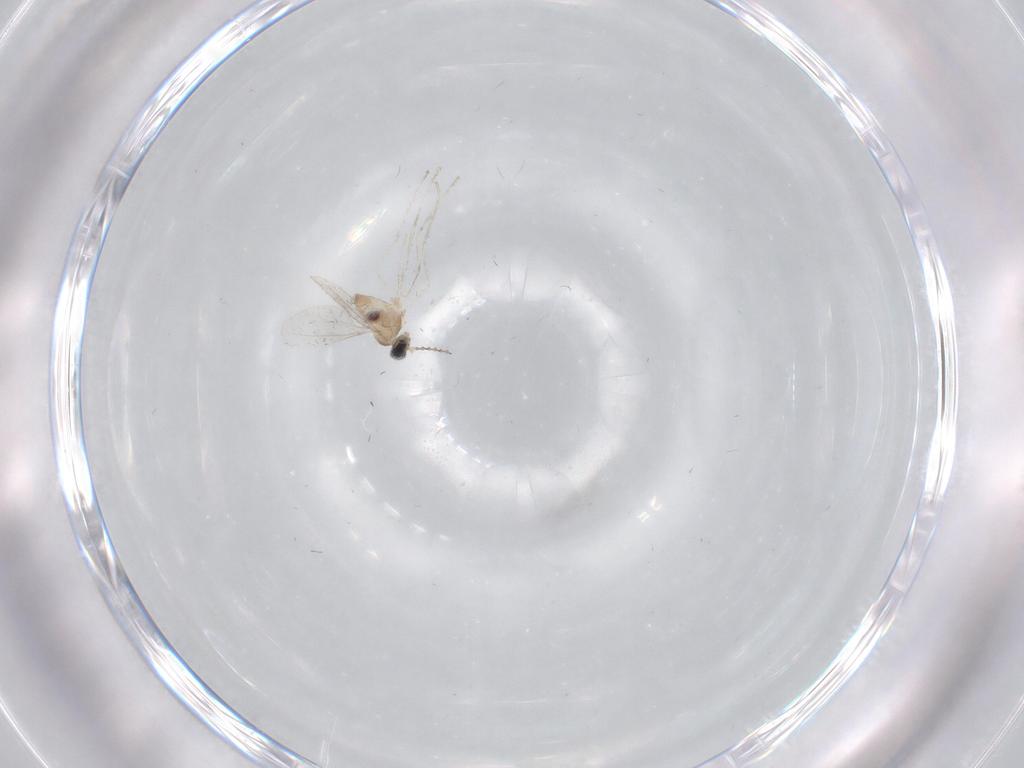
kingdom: Animalia
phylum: Arthropoda
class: Insecta
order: Diptera
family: Cecidomyiidae
